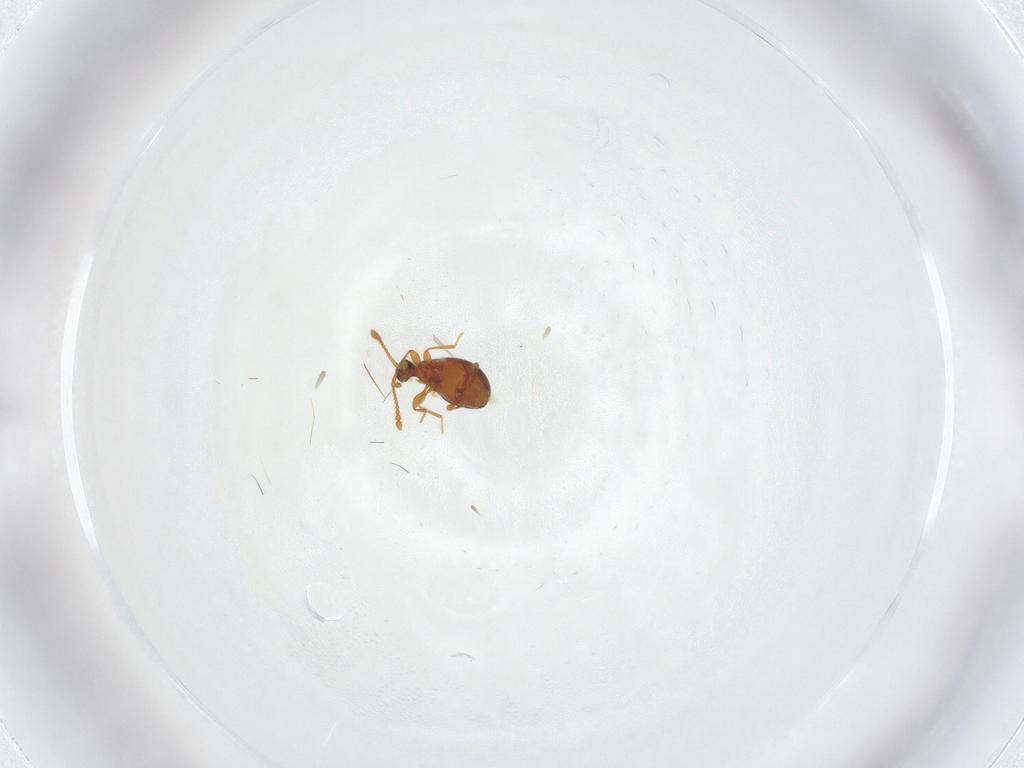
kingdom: Animalia
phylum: Arthropoda
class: Insecta
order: Coleoptera
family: Staphylinidae
